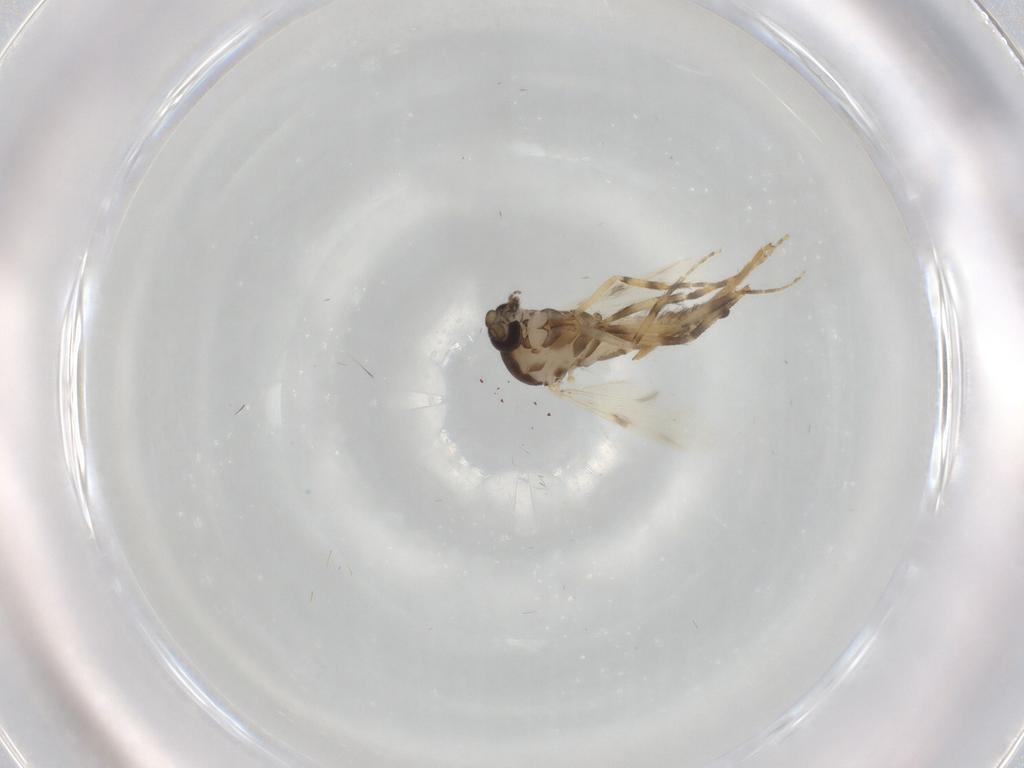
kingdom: Animalia
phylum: Arthropoda
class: Insecta
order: Diptera
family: Ceratopogonidae
